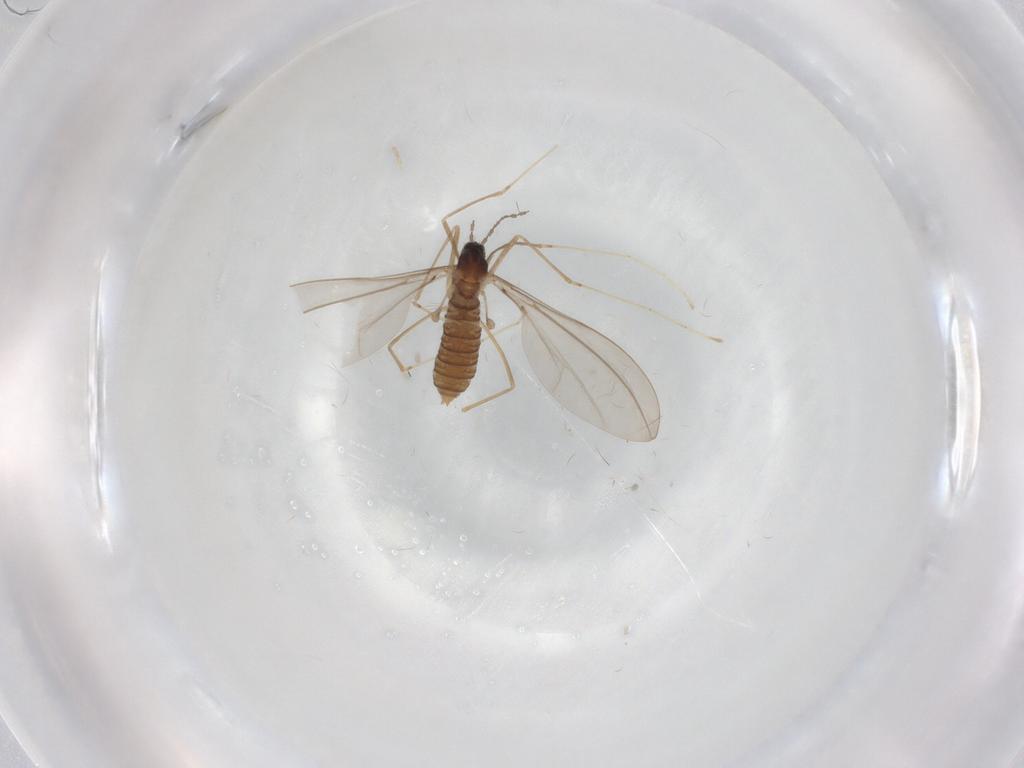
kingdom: Animalia
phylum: Arthropoda
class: Insecta
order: Diptera
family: Cecidomyiidae
